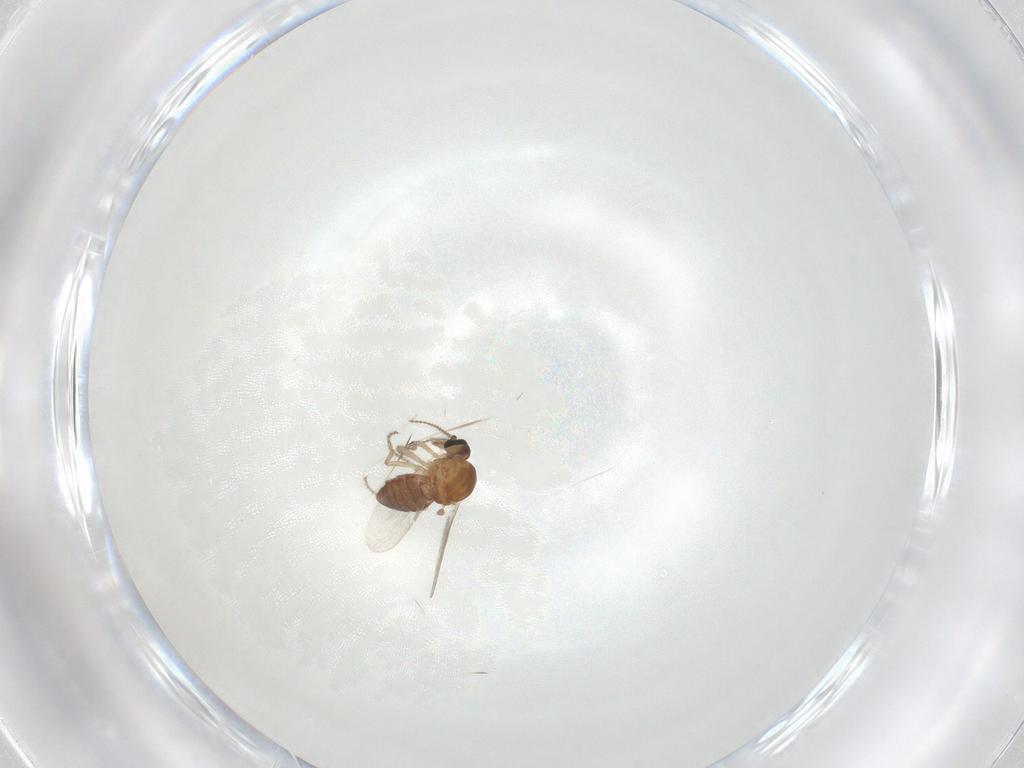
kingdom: Animalia
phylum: Arthropoda
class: Insecta
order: Diptera
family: Ceratopogonidae
